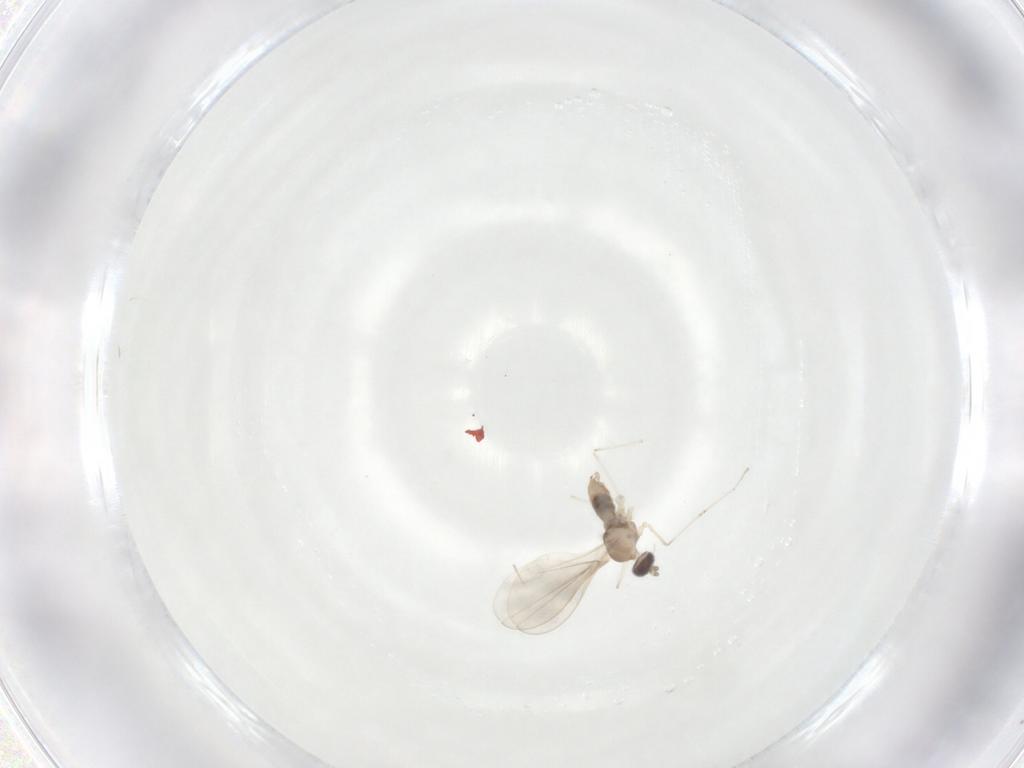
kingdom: Animalia
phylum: Arthropoda
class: Insecta
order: Diptera
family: Cecidomyiidae
